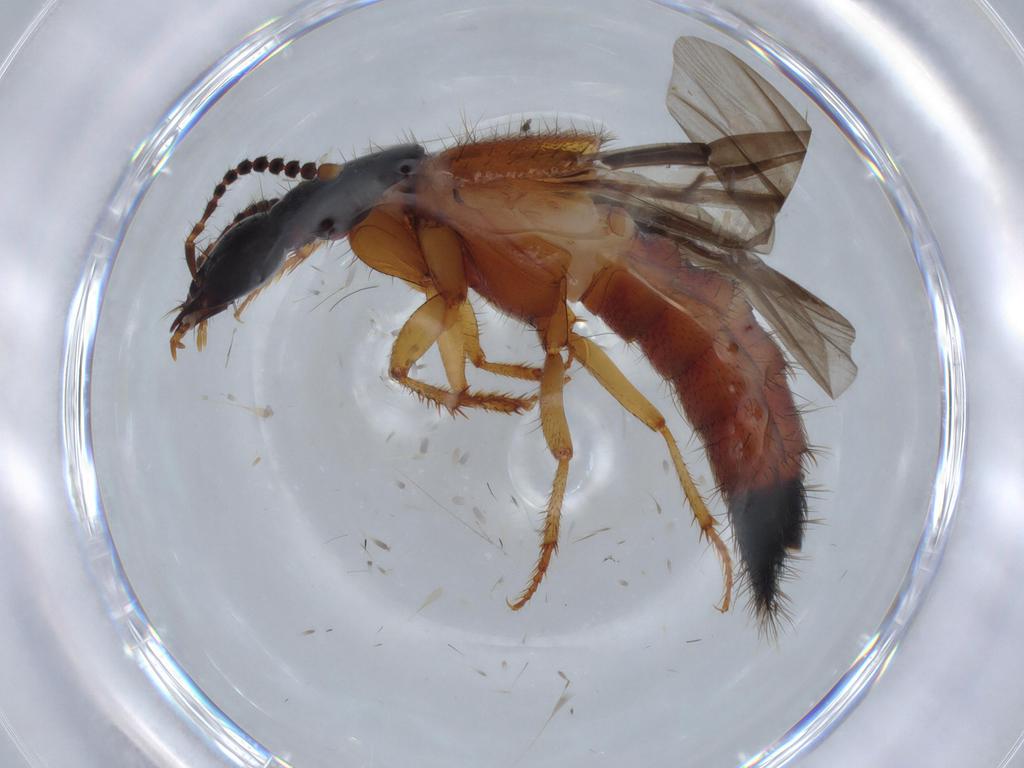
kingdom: Animalia
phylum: Arthropoda
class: Insecta
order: Coleoptera
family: Staphylinidae
